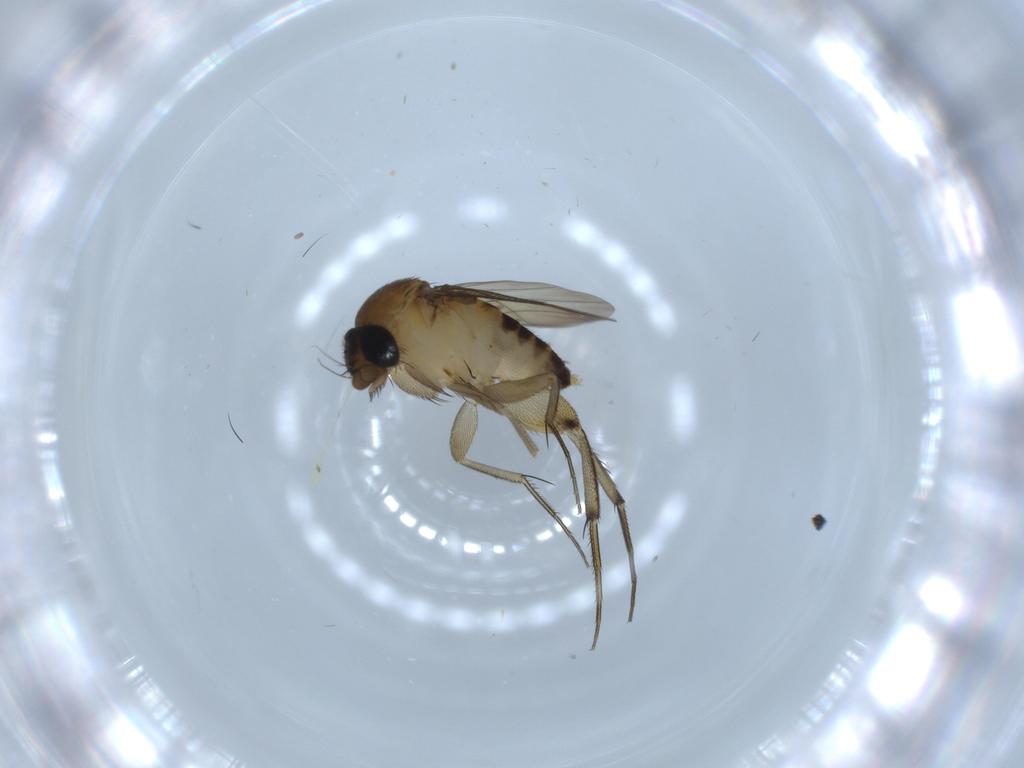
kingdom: Animalia
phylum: Arthropoda
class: Insecta
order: Diptera
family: Phoridae
